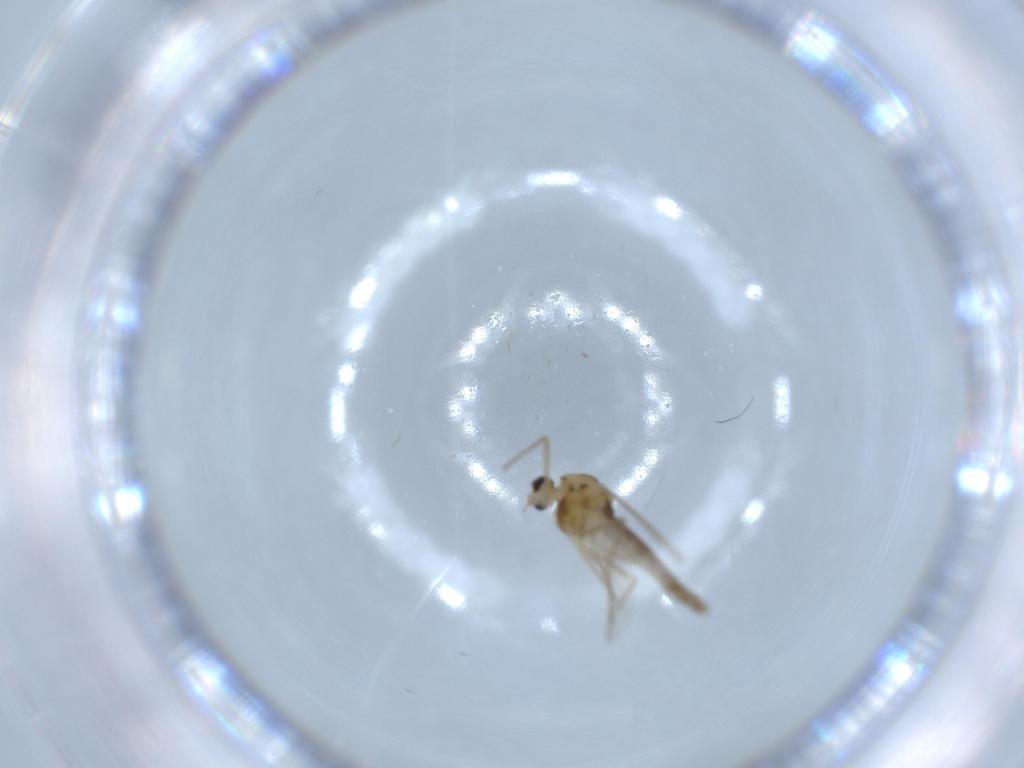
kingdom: Animalia
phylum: Arthropoda
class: Insecta
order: Diptera
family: Chironomidae
